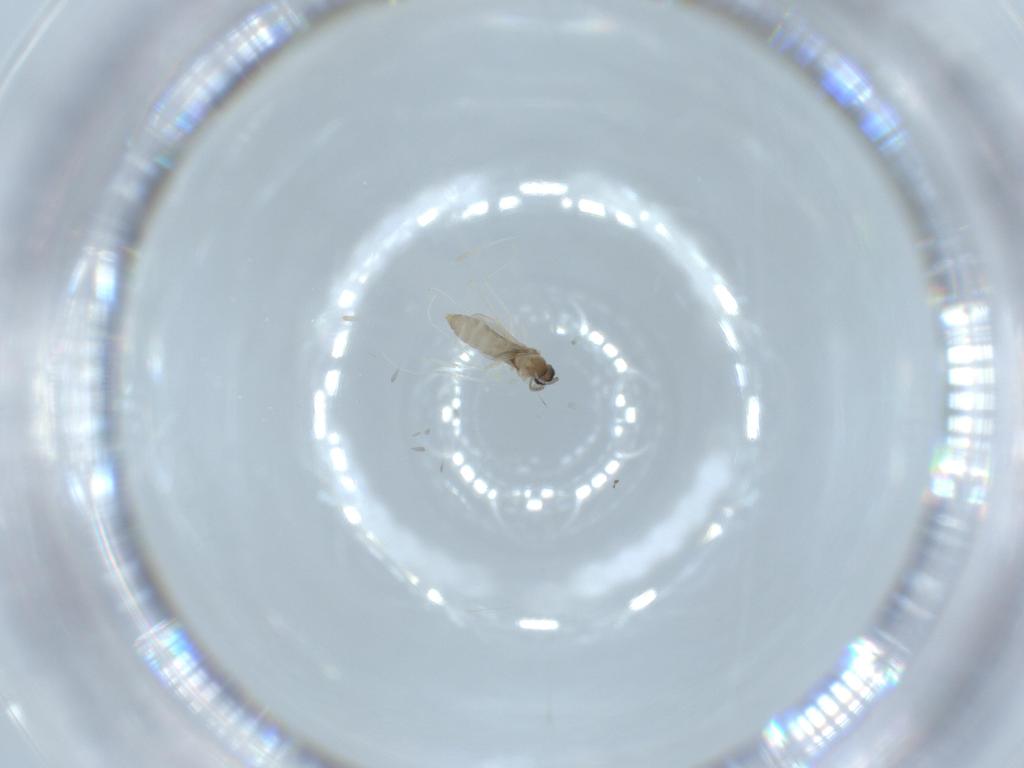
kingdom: Animalia
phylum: Arthropoda
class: Insecta
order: Diptera
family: Cecidomyiidae
